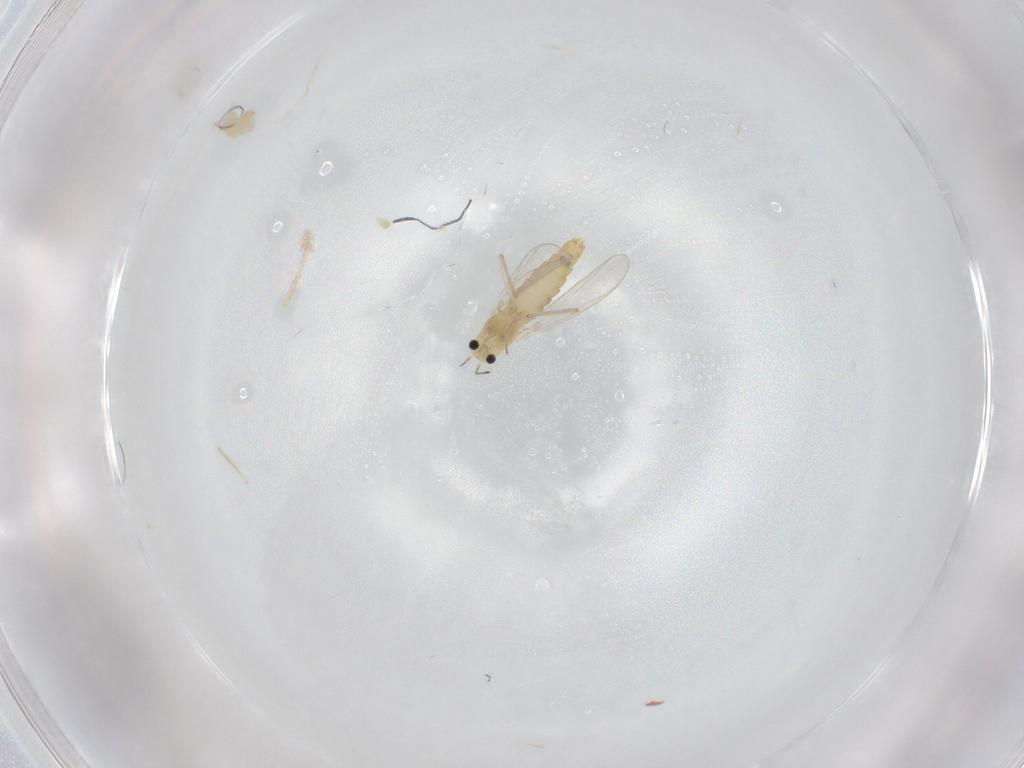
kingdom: Animalia
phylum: Arthropoda
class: Insecta
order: Diptera
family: Chironomidae
